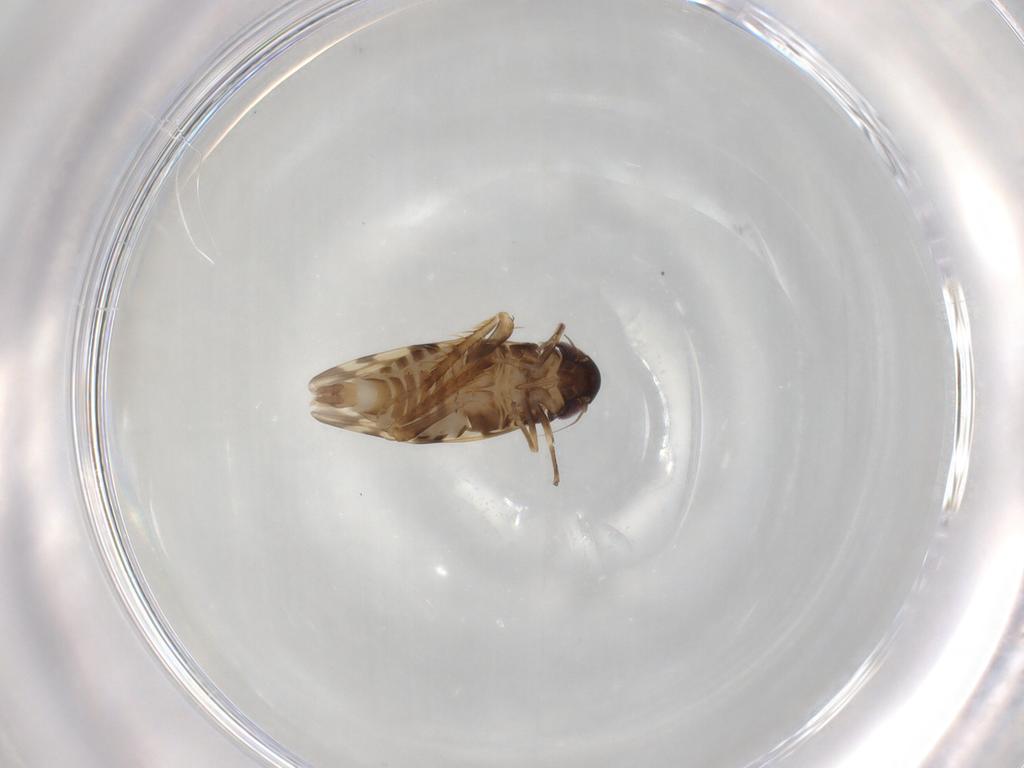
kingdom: Animalia
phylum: Arthropoda
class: Insecta
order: Hemiptera
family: Cicadellidae
